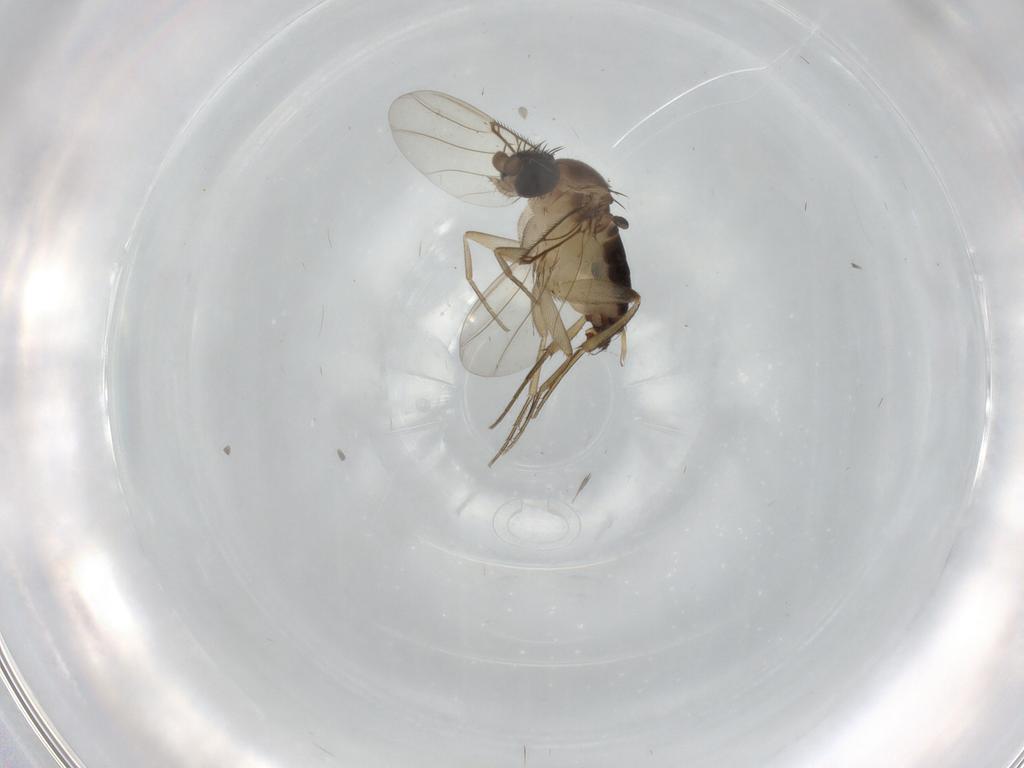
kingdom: Animalia
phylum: Arthropoda
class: Insecta
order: Diptera
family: Phoridae
